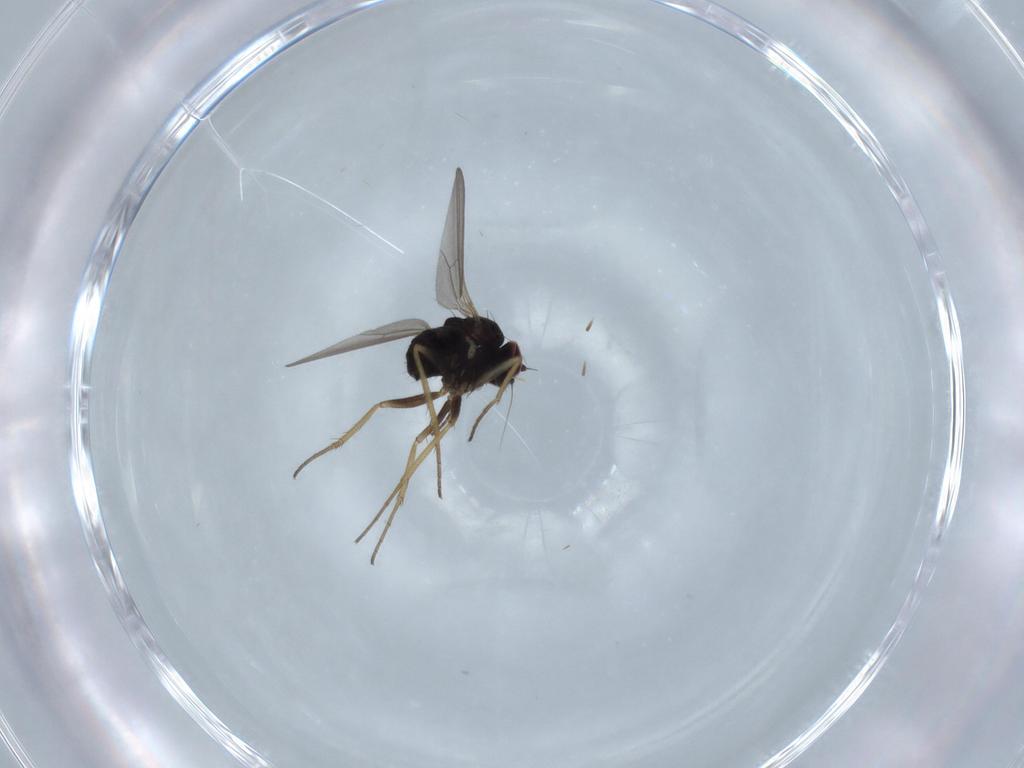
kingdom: Animalia
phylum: Arthropoda
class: Insecta
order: Diptera
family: Dolichopodidae
